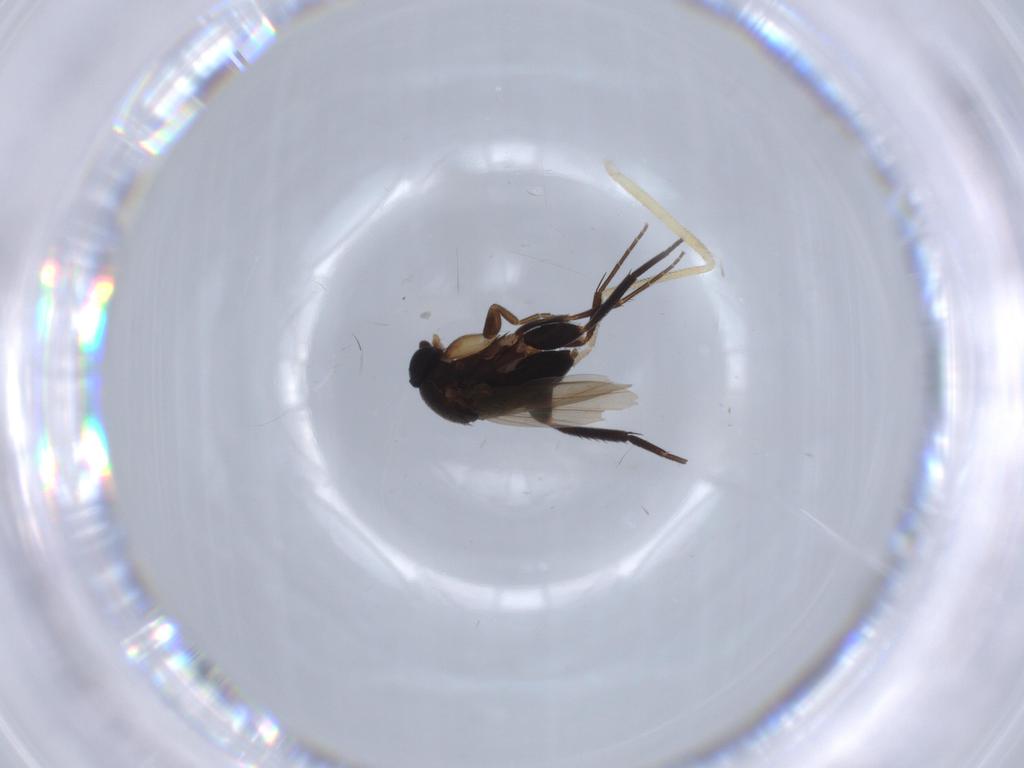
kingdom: Animalia
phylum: Arthropoda
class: Insecta
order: Diptera
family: Phoridae
